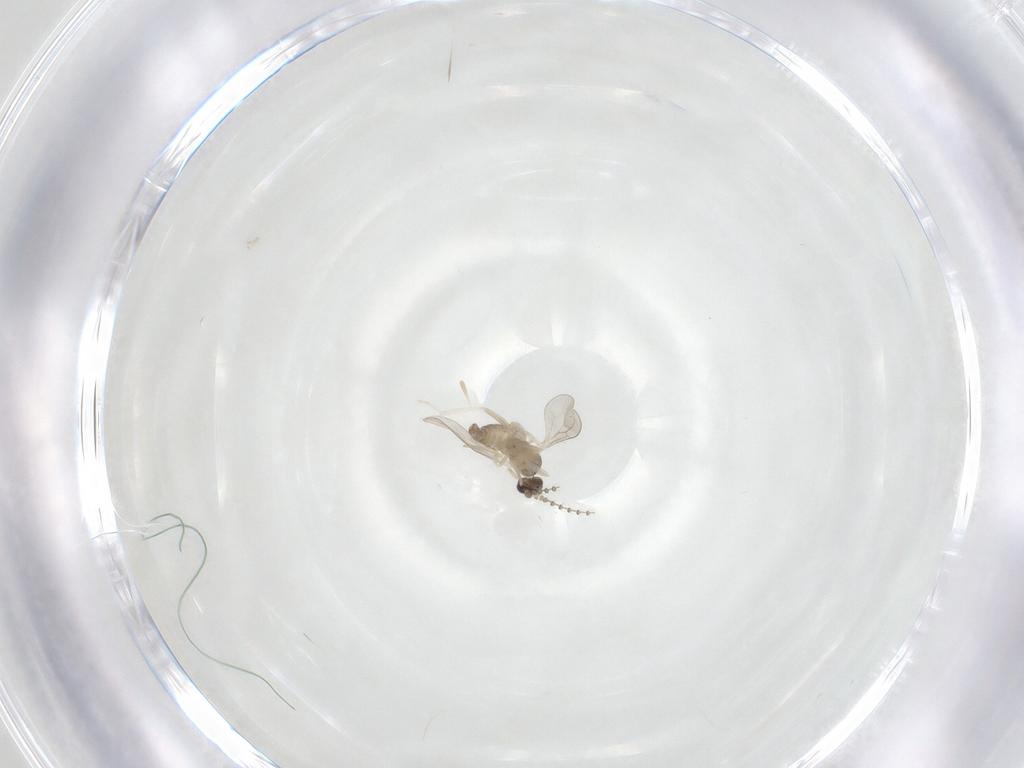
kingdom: Animalia
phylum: Arthropoda
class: Insecta
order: Diptera
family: Cecidomyiidae
